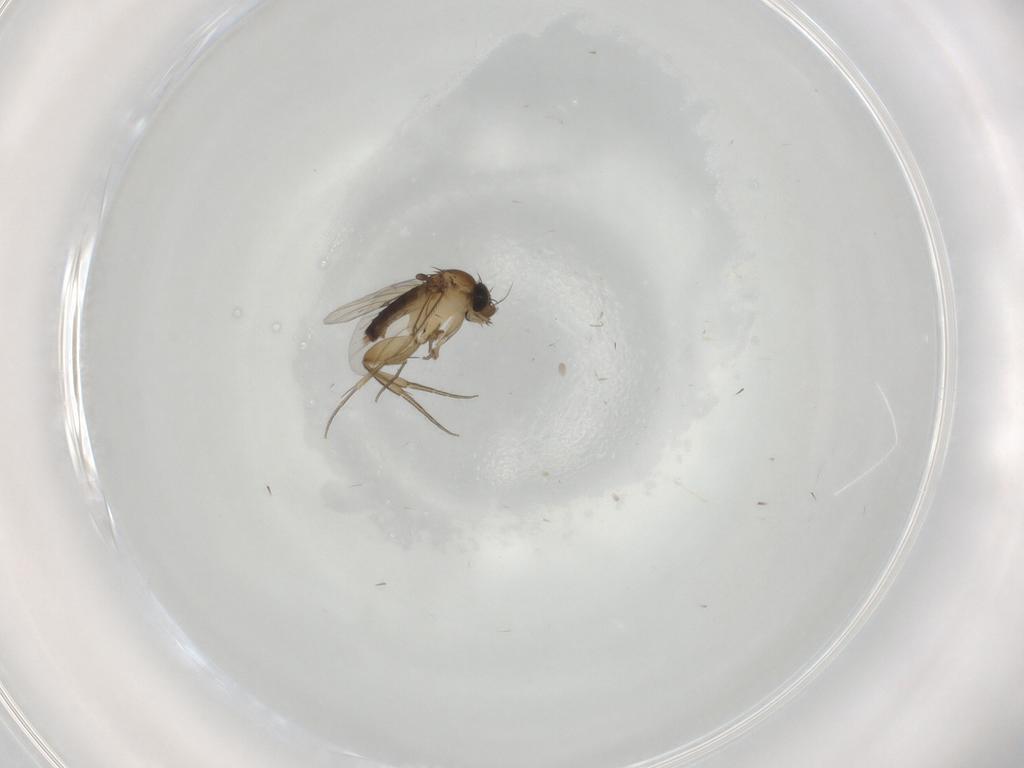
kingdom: Animalia
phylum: Arthropoda
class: Insecta
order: Diptera
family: Phoridae
